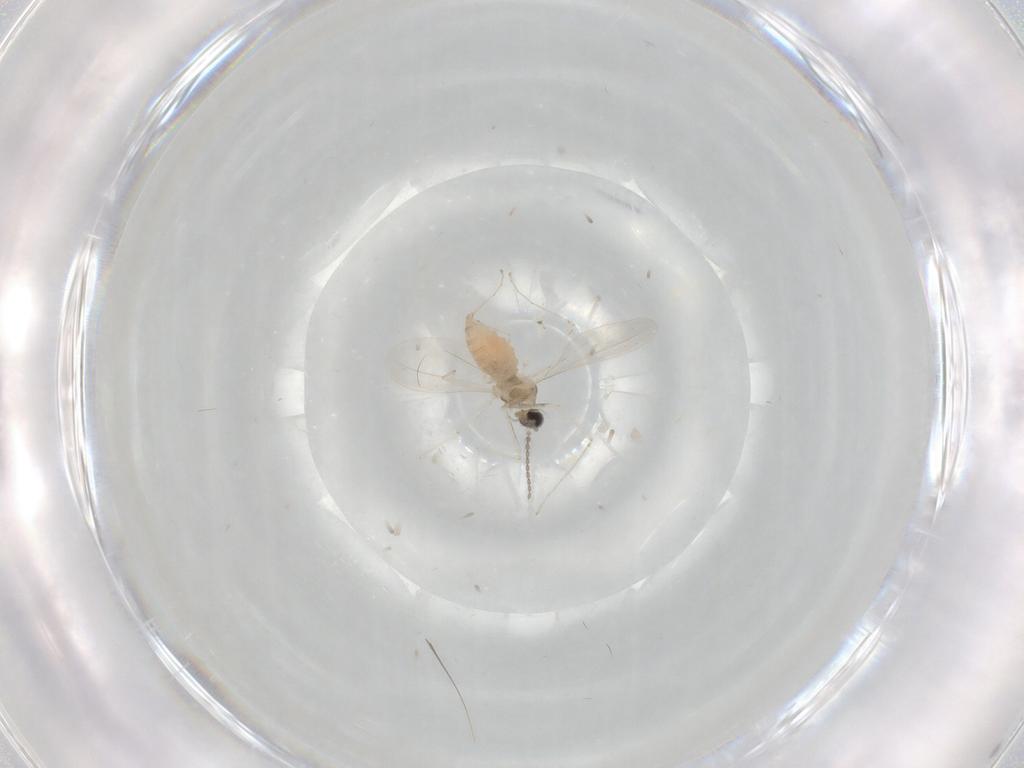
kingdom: Animalia
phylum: Arthropoda
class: Insecta
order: Diptera
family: Cecidomyiidae
